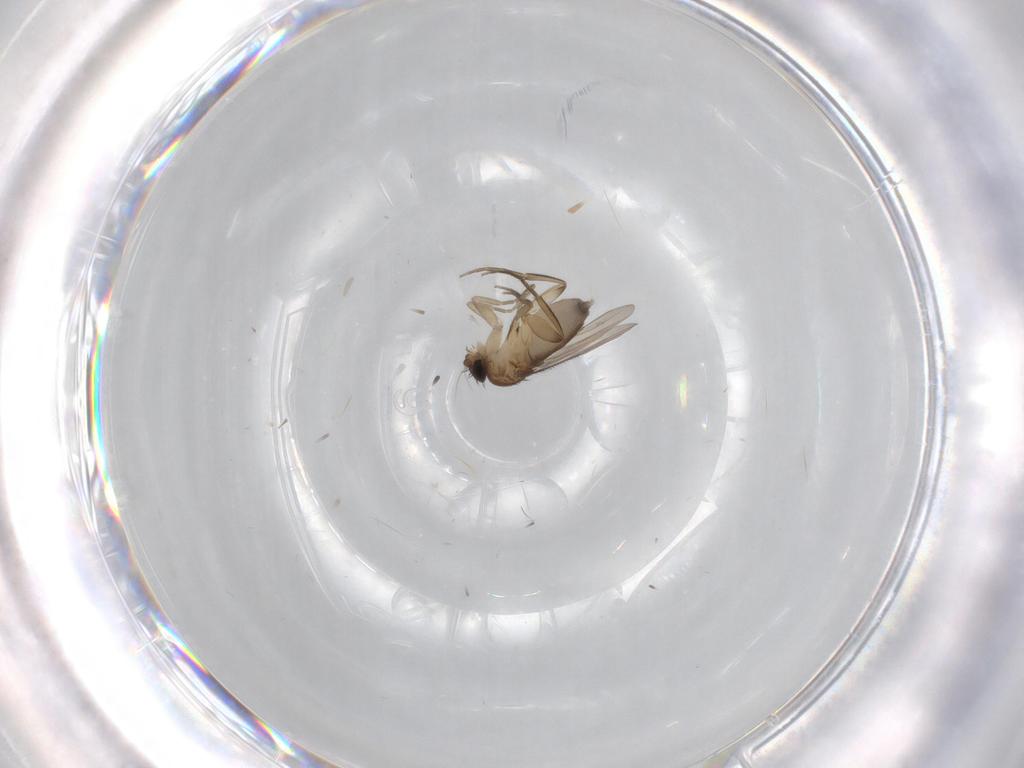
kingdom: Animalia
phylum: Arthropoda
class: Insecta
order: Diptera
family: Phoridae
